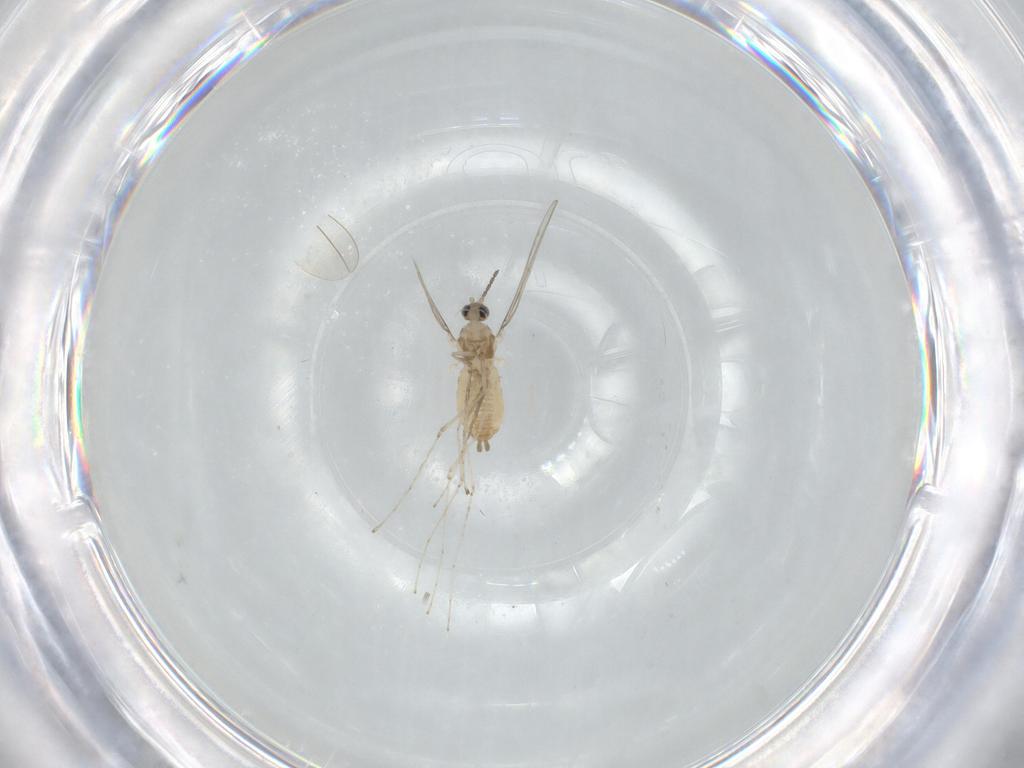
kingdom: Animalia
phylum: Arthropoda
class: Insecta
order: Diptera
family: Cecidomyiidae
